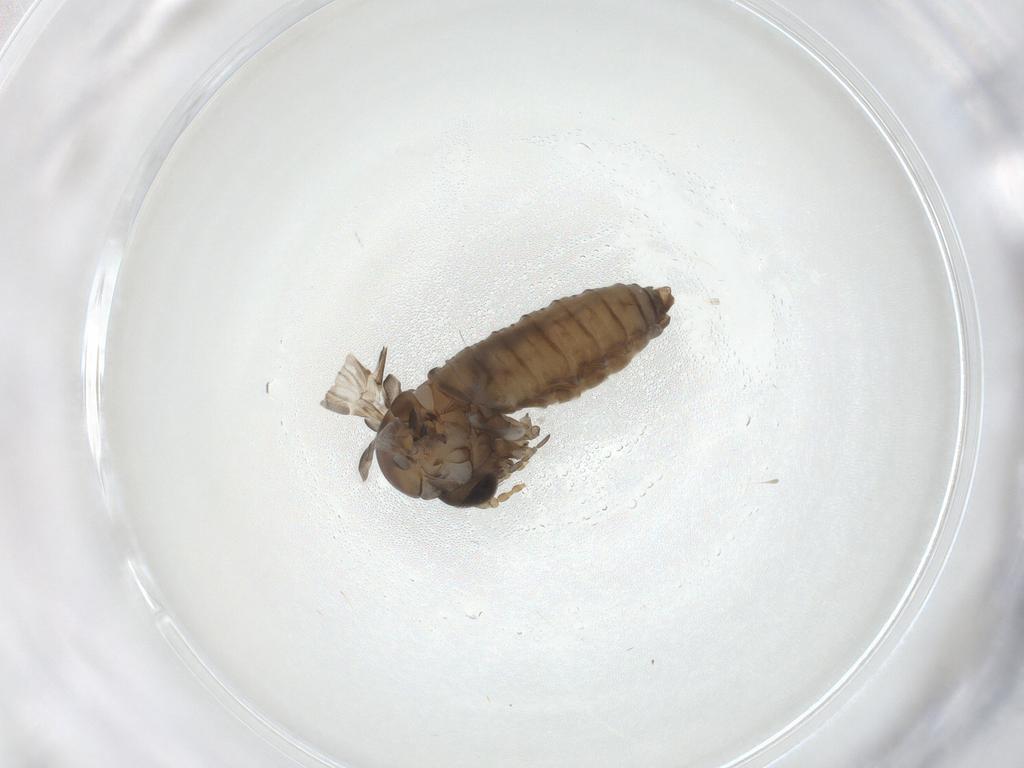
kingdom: Animalia
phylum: Arthropoda
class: Insecta
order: Diptera
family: Psychodidae
